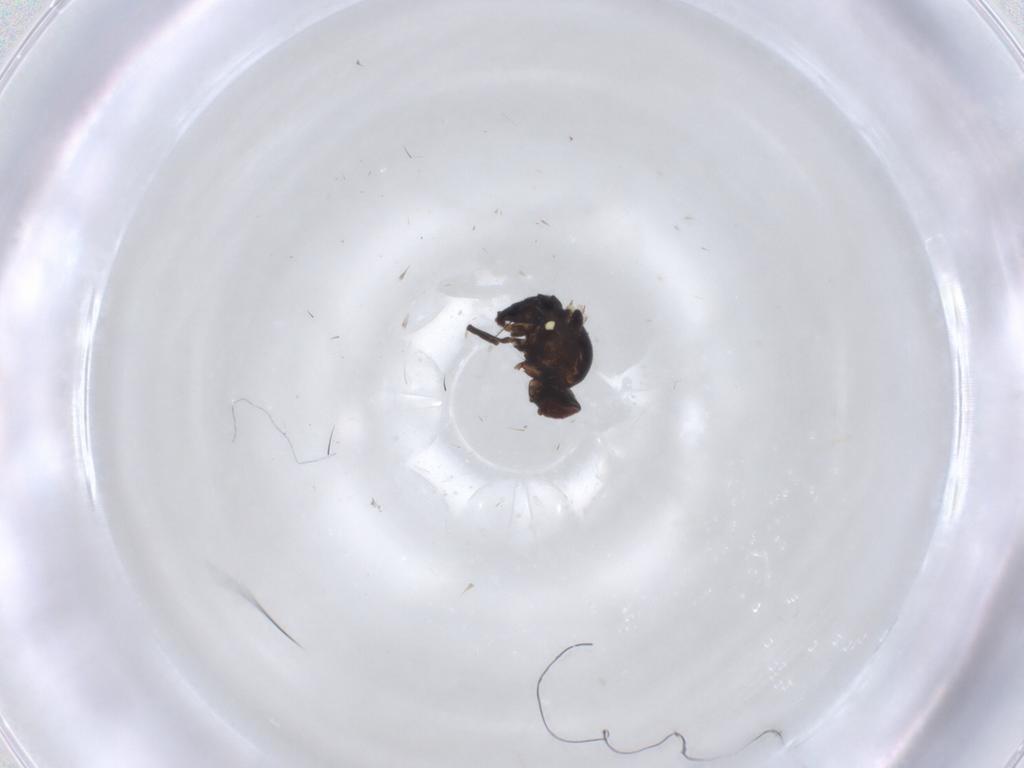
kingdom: Animalia
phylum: Arthropoda
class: Insecta
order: Diptera
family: Anthomyiidae
